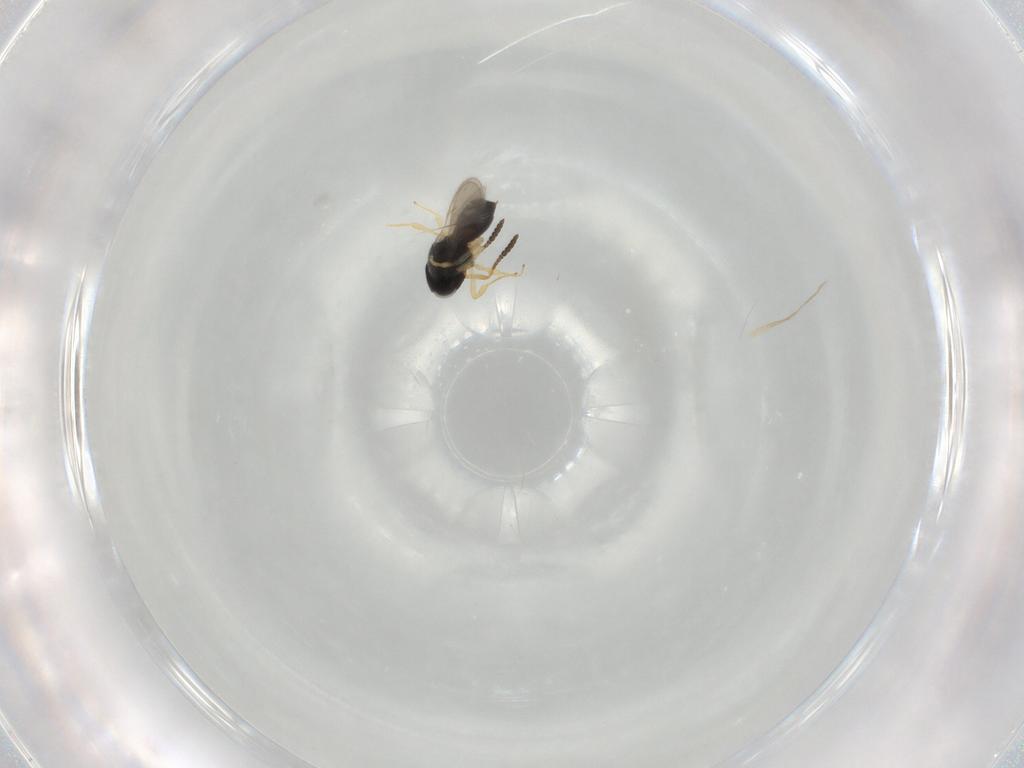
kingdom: Animalia
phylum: Arthropoda
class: Insecta
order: Hymenoptera
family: Scelionidae
